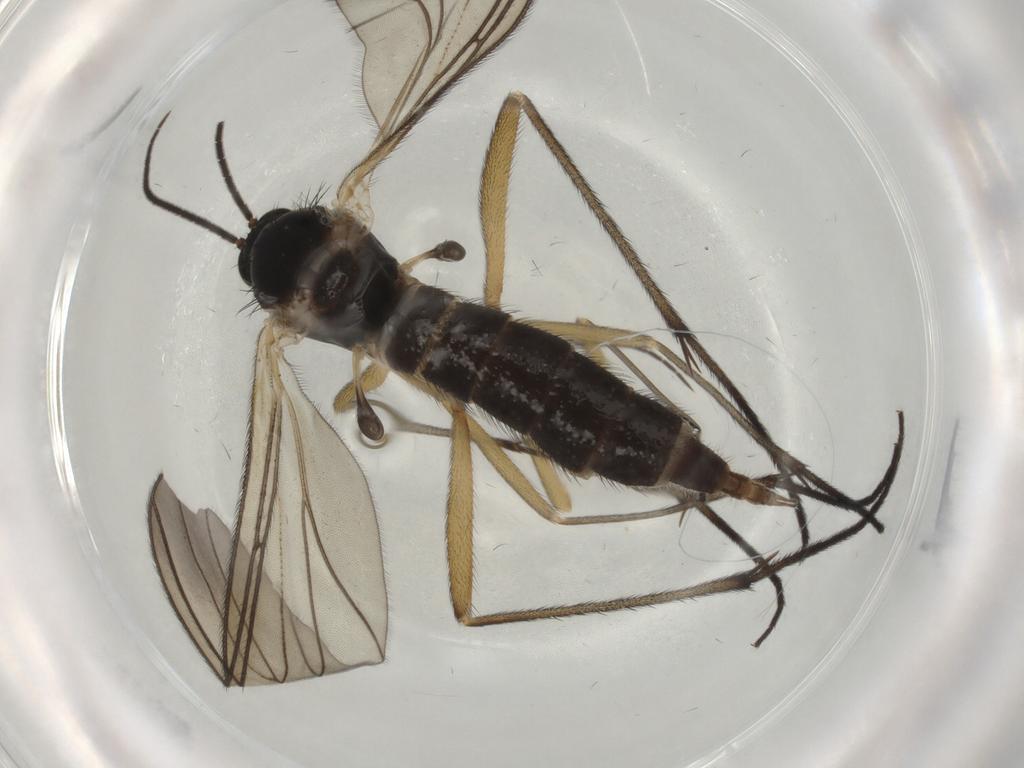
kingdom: Animalia
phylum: Arthropoda
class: Insecta
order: Diptera
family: Sciaridae
